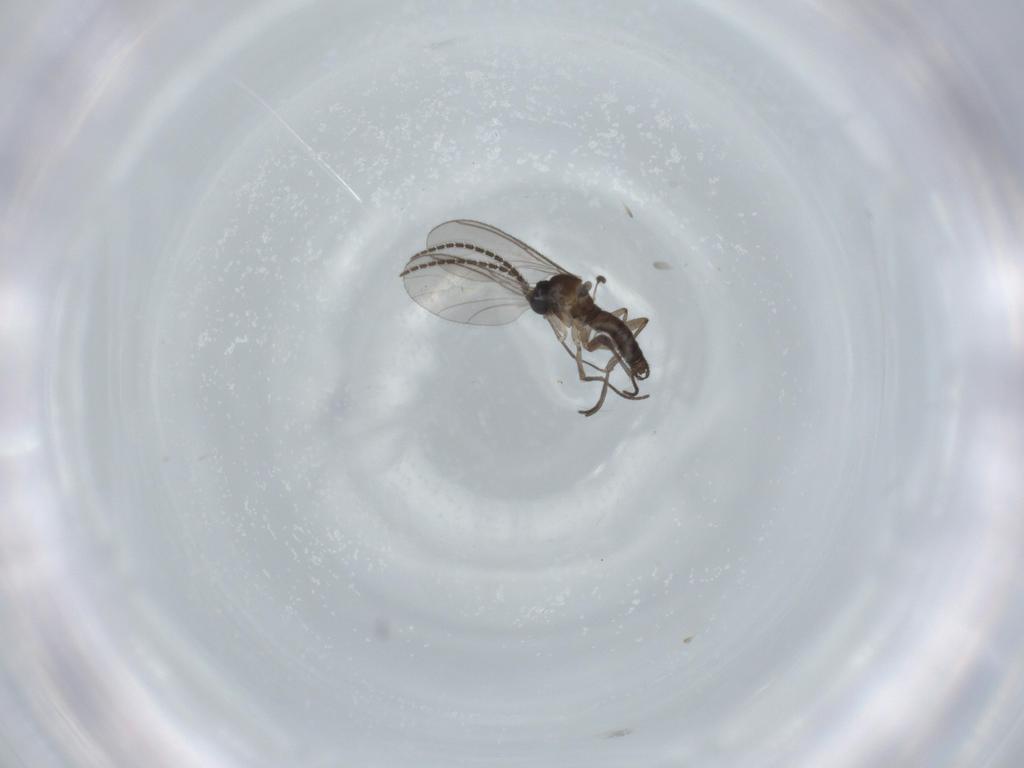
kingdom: Animalia
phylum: Arthropoda
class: Insecta
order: Diptera
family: Sciaridae
